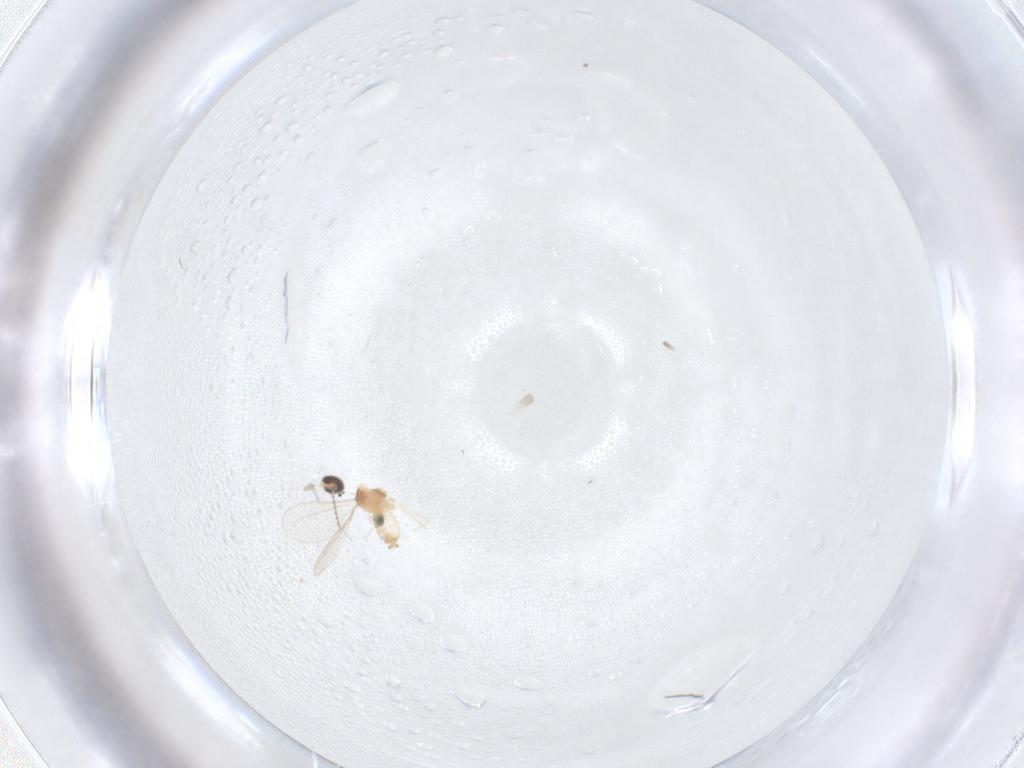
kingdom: Animalia
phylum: Arthropoda
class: Insecta
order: Diptera
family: Cecidomyiidae
